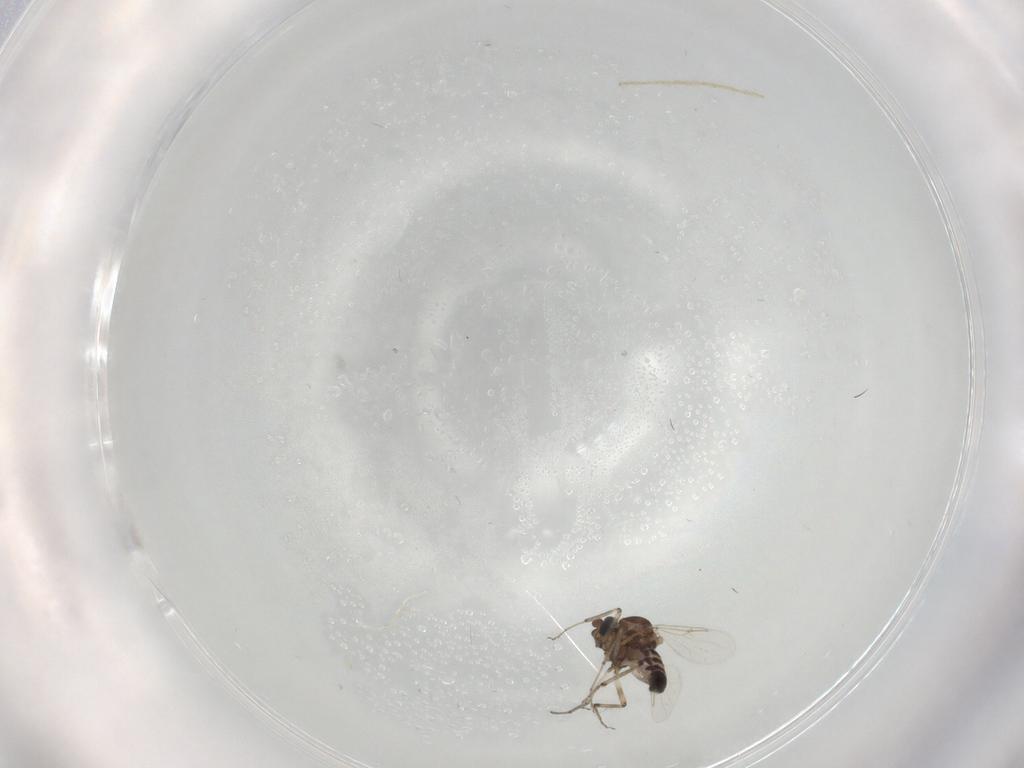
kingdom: Animalia
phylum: Arthropoda
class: Insecta
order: Diptera
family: Ceratopogonidae
